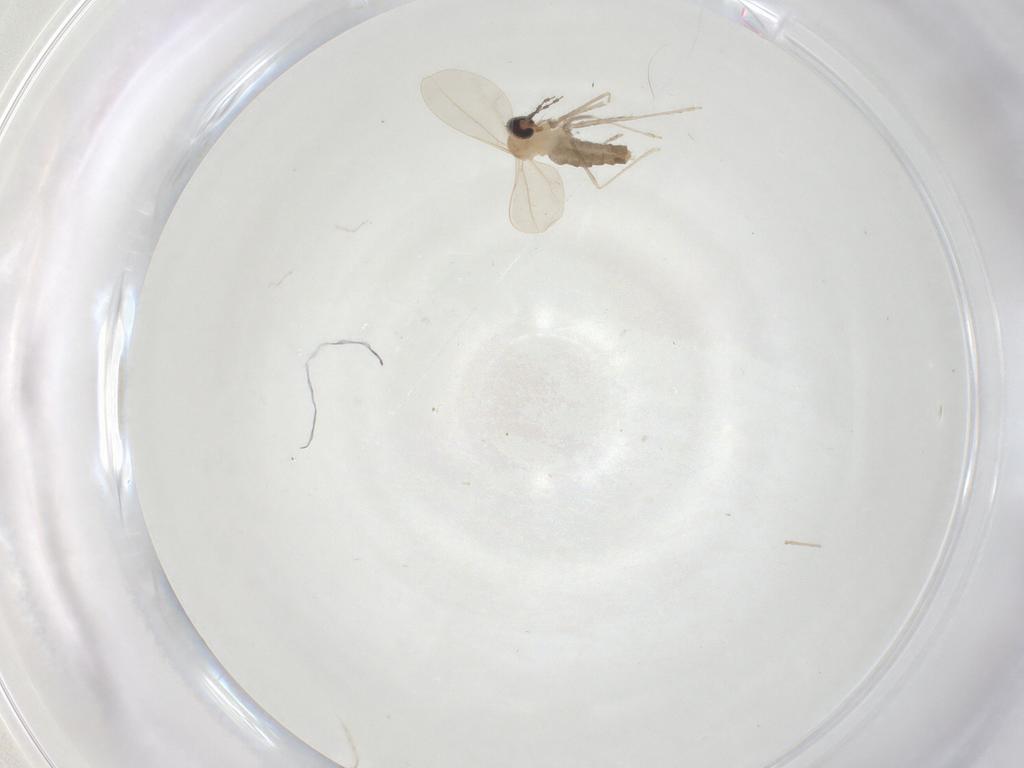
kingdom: Animalia
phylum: Arthropoda
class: Insecta
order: Diptera
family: Cecidomyiidae
